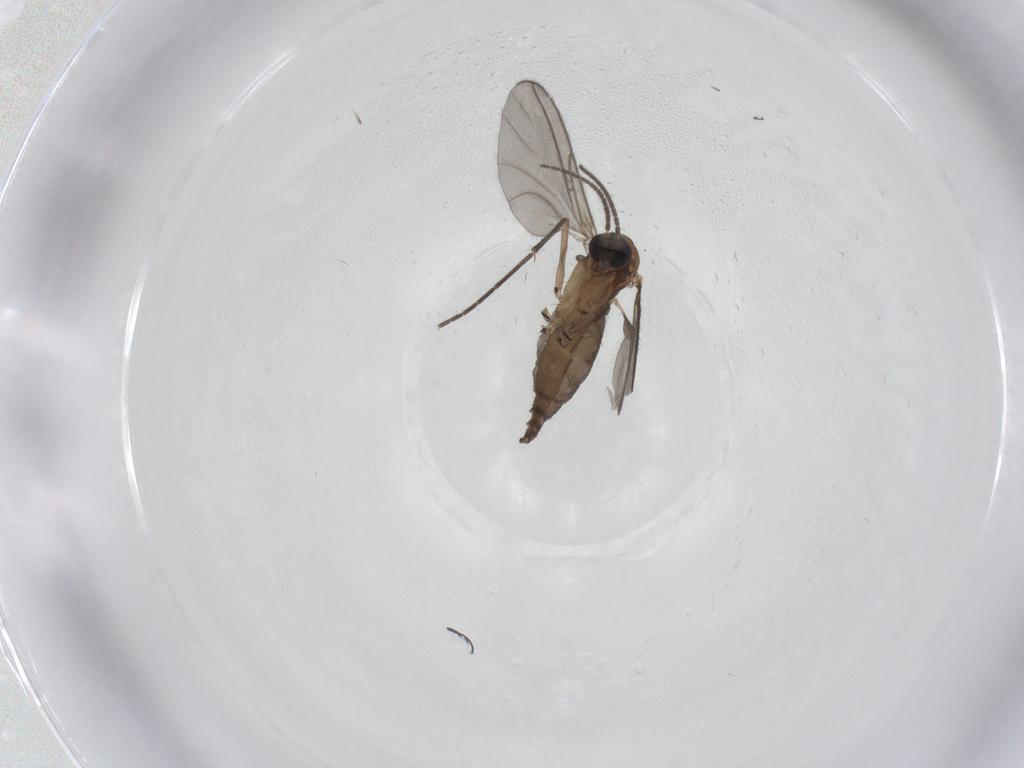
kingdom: Animalia
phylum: Arthropoda
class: Insecta
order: Diptera
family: Sciaridae
